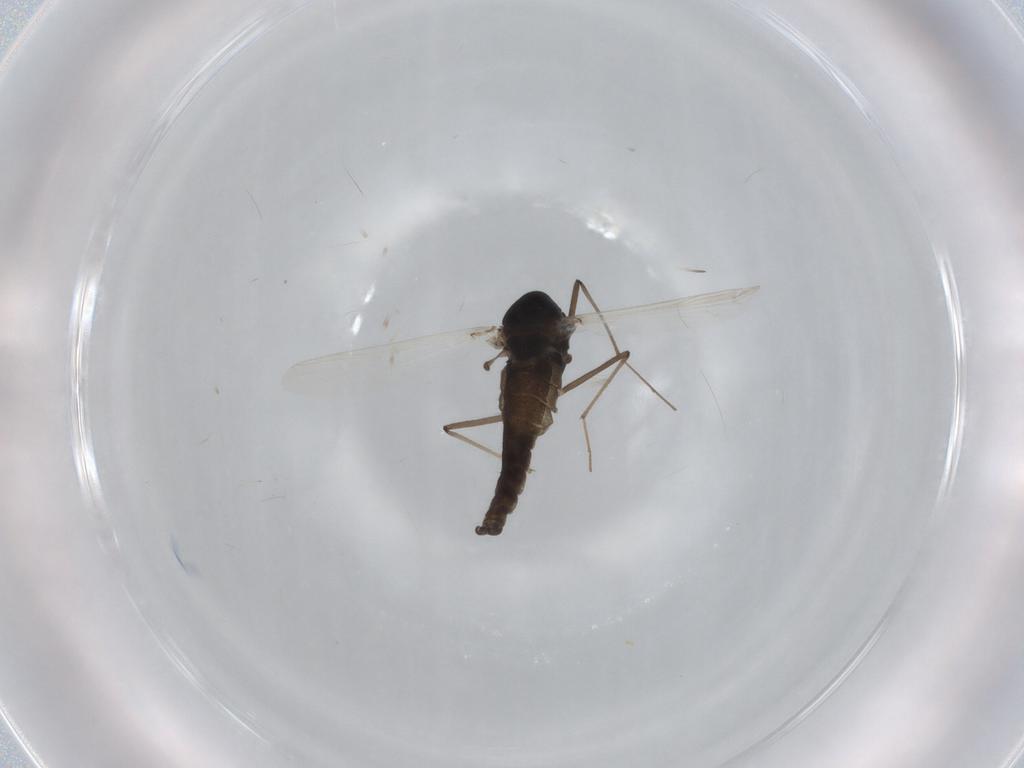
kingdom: Animalia
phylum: Arthropoda
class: Insecta
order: Diptera
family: Chironomidae
